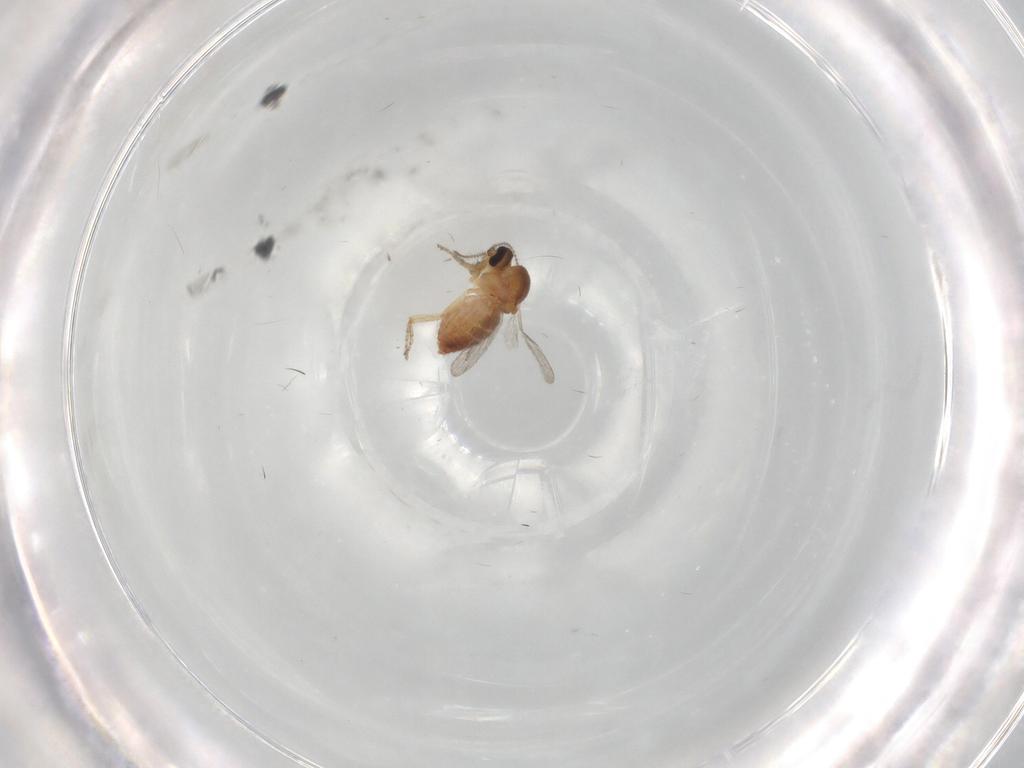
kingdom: Animalia
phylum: Arthropoda
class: Insecta
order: Diptera
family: Ceratopogonidae
